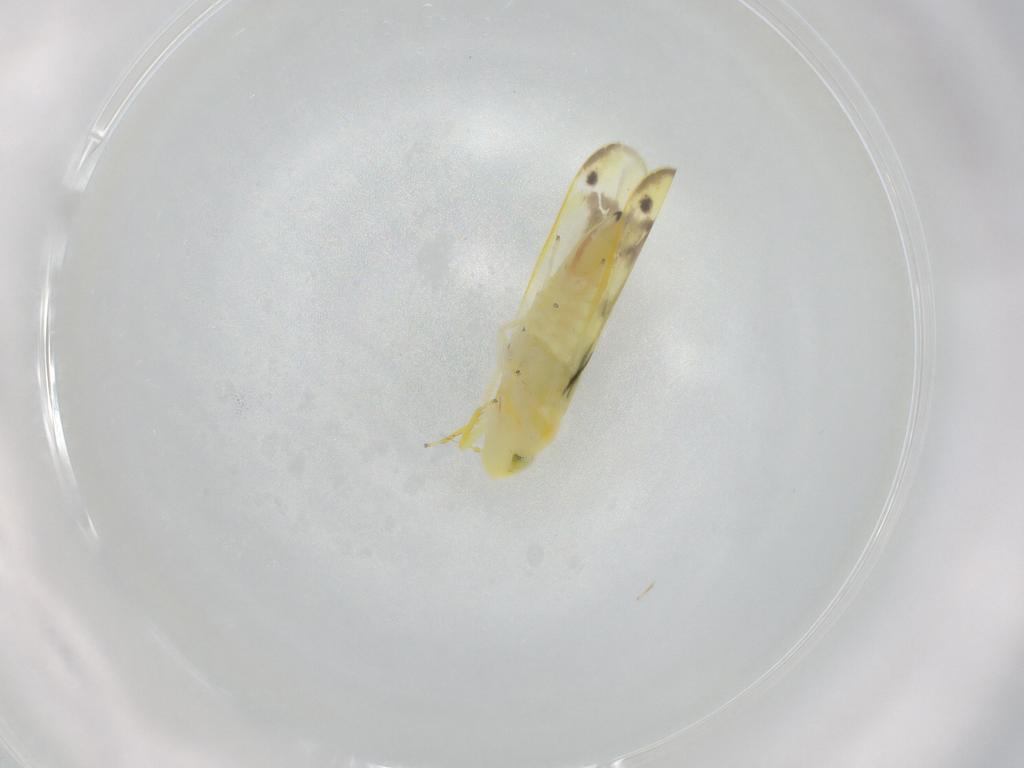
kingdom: Animalia
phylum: Arthropoda
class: Insecta
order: Hemiptera
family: Cicadellidae
